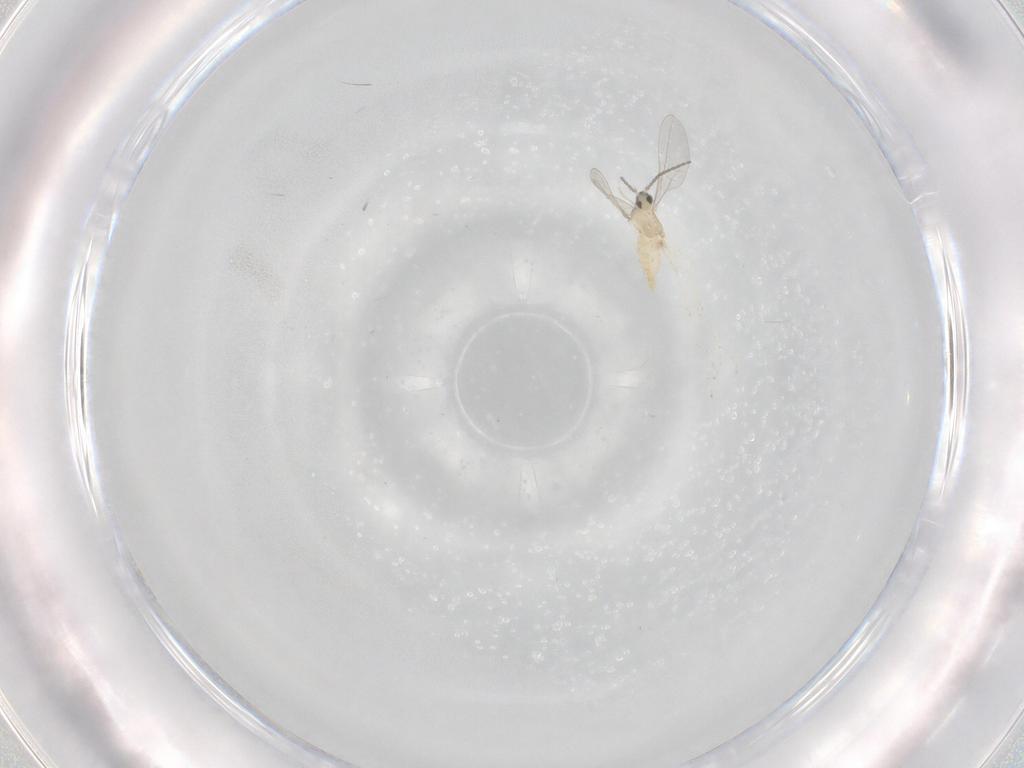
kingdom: Animalia
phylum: Arthropoda
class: Insecta
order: Diptera
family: Cecidomyiidae
